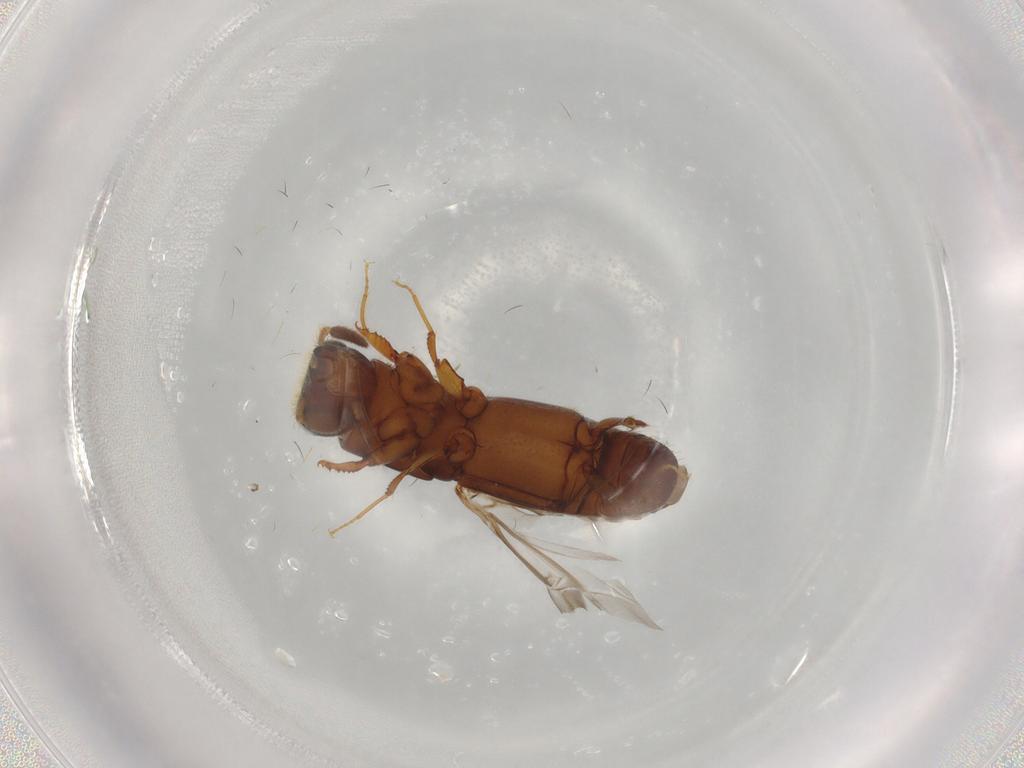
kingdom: Animalia
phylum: Arthropoda
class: Insecta
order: Coleoptera
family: Curculionidae
